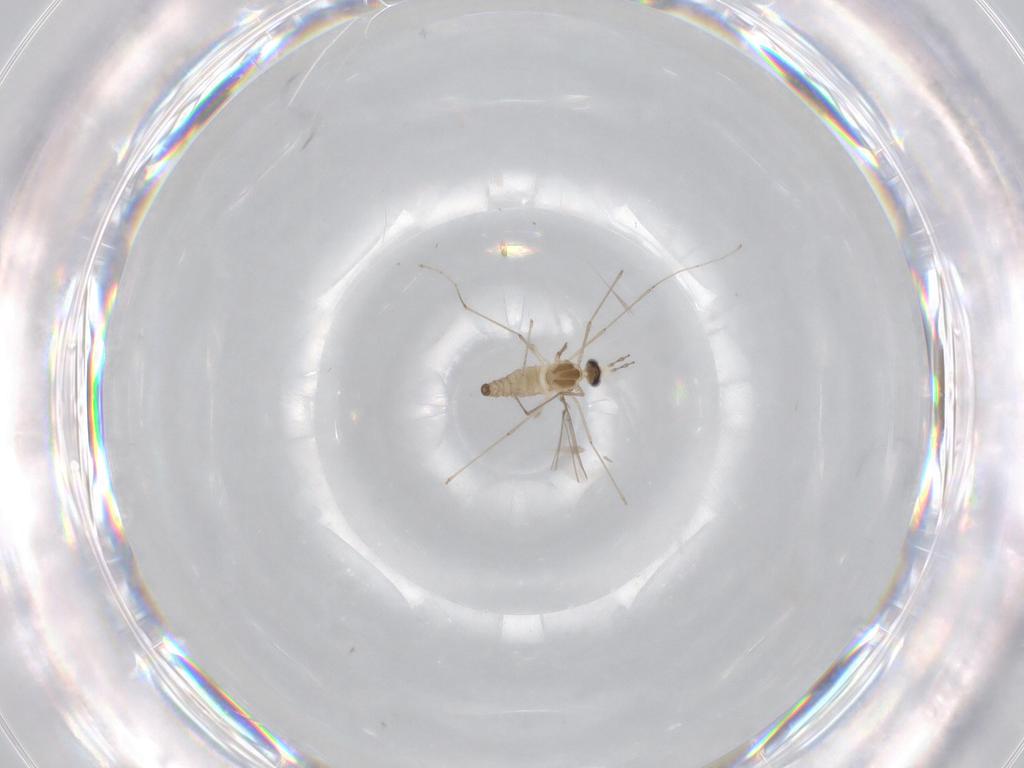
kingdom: Animalia
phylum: Arthropoda
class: Insecta
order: Diptera
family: Cecidomyiidae
